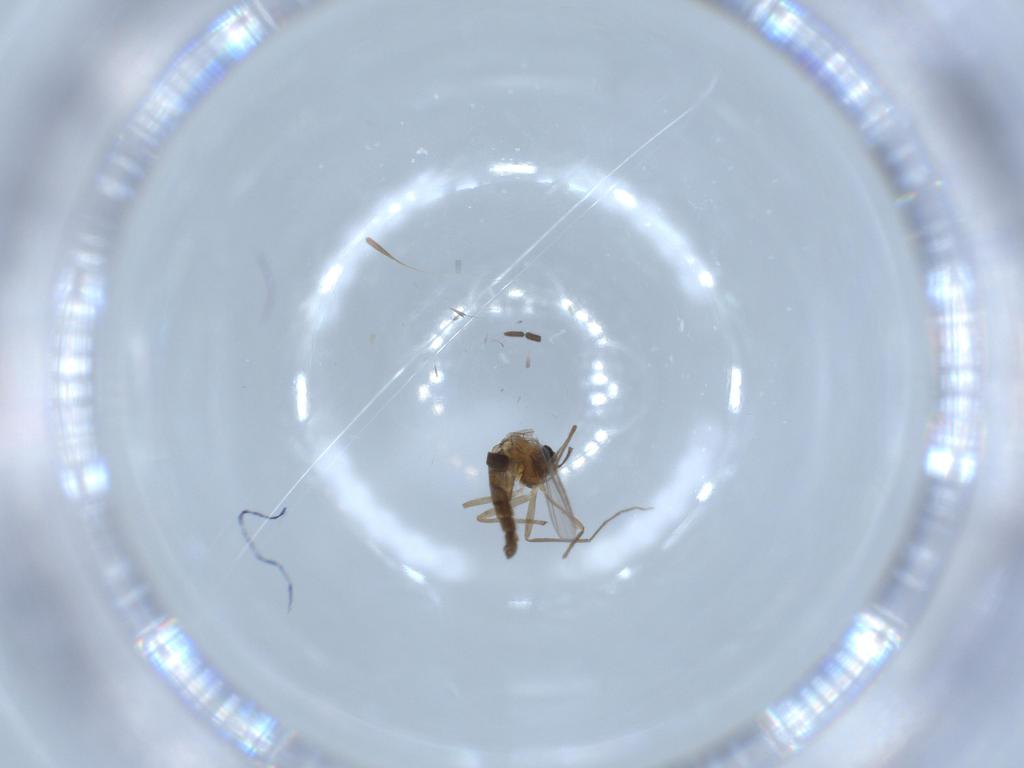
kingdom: Animalia
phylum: Arthropoda
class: Insecta
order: Diptera
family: Chironomidae
